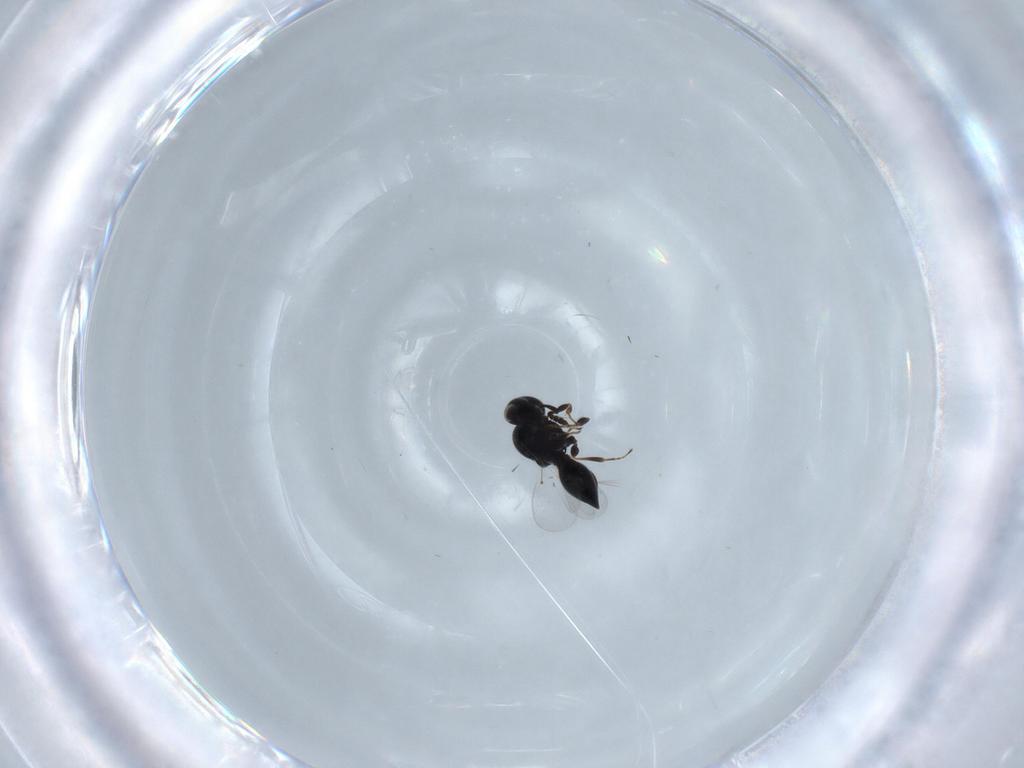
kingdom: Animalia
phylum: Arthropoda
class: Insecta
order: Hymenoptera
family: Platygastridae
